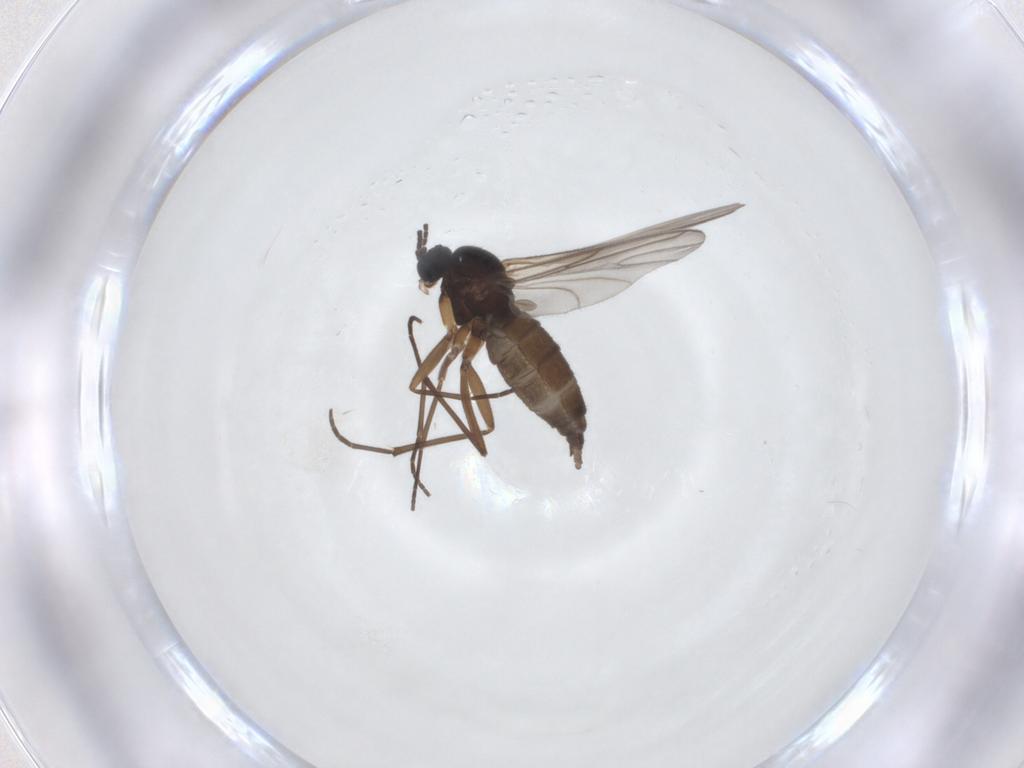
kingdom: Animalia
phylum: Arthropoda
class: Insecta
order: Diptera
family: Sciaridae
